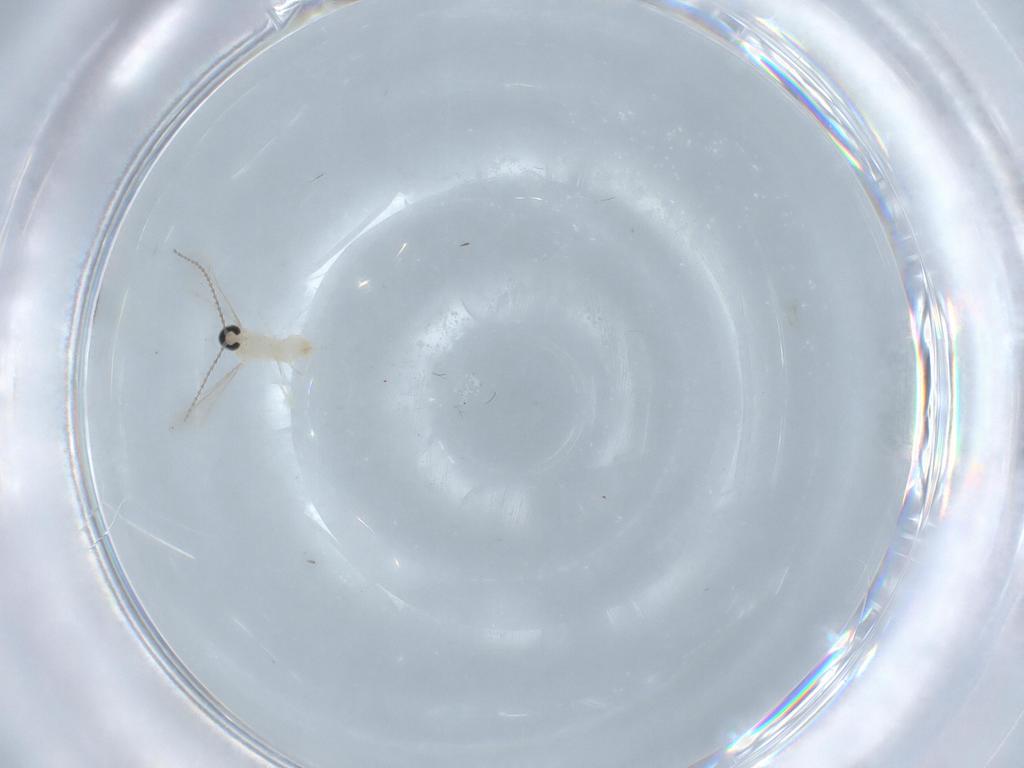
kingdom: Animalia
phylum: Arthropoda
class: Insecta
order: Diptera
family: Cecidomyiidae
